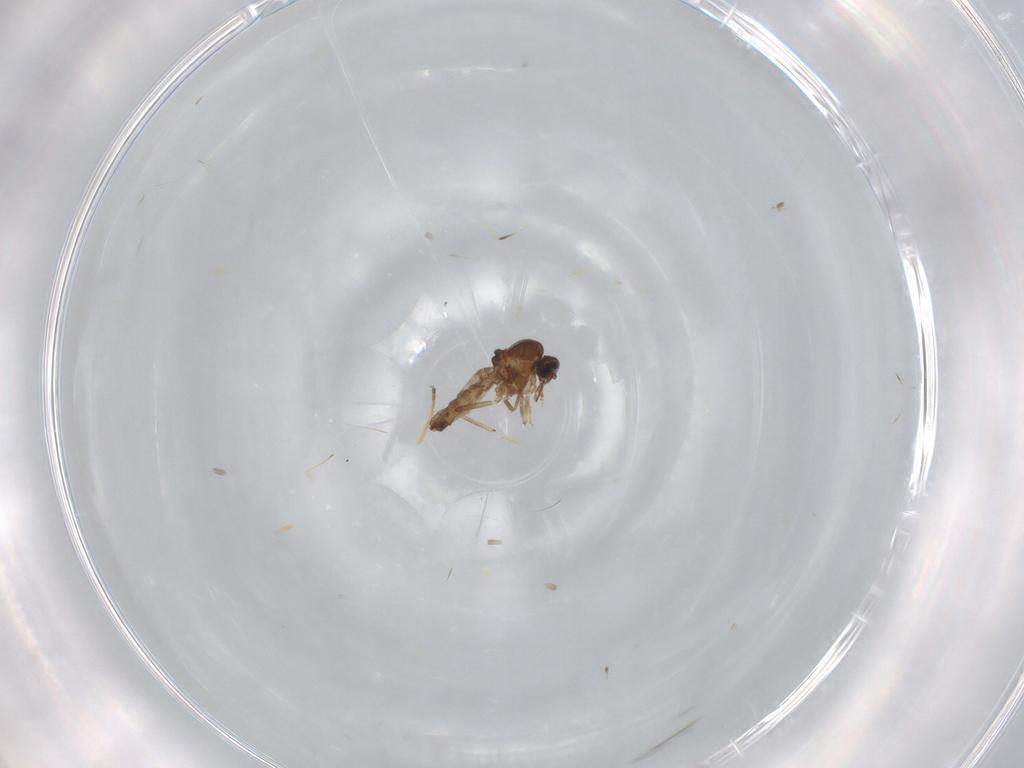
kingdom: Animalia
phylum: Arthropoda
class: Insecta
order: Diptera
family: Chloropidae
